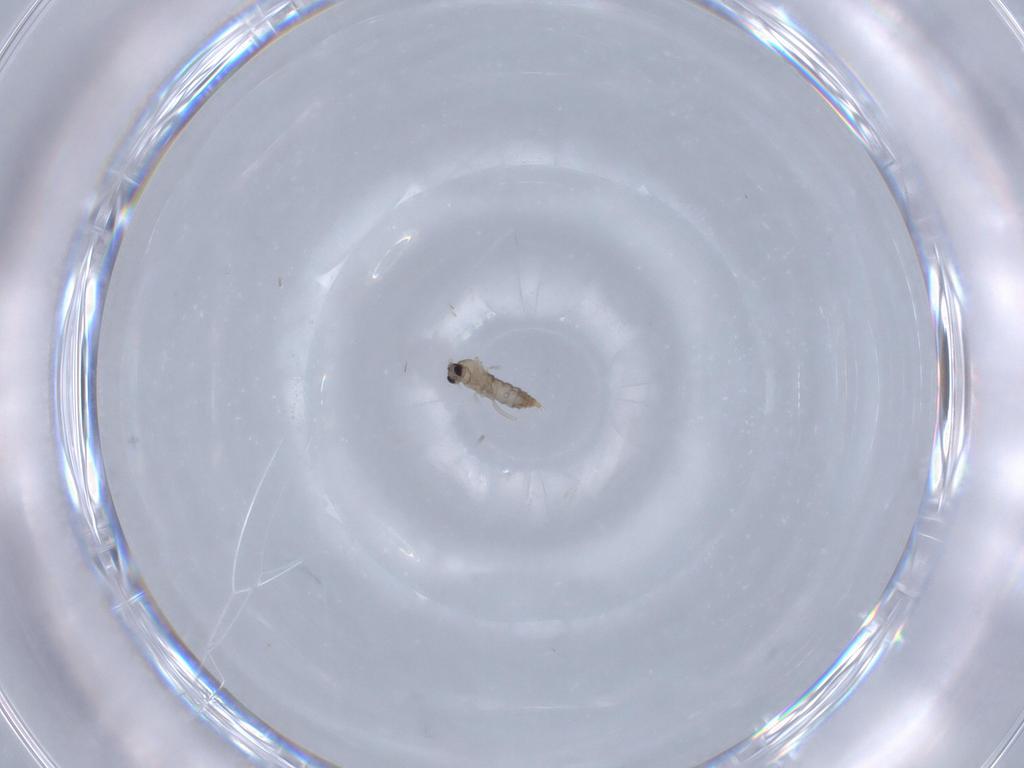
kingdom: Animalia
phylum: Arthropoda
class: Insecta
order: Diptera
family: Cecidomyiidae
